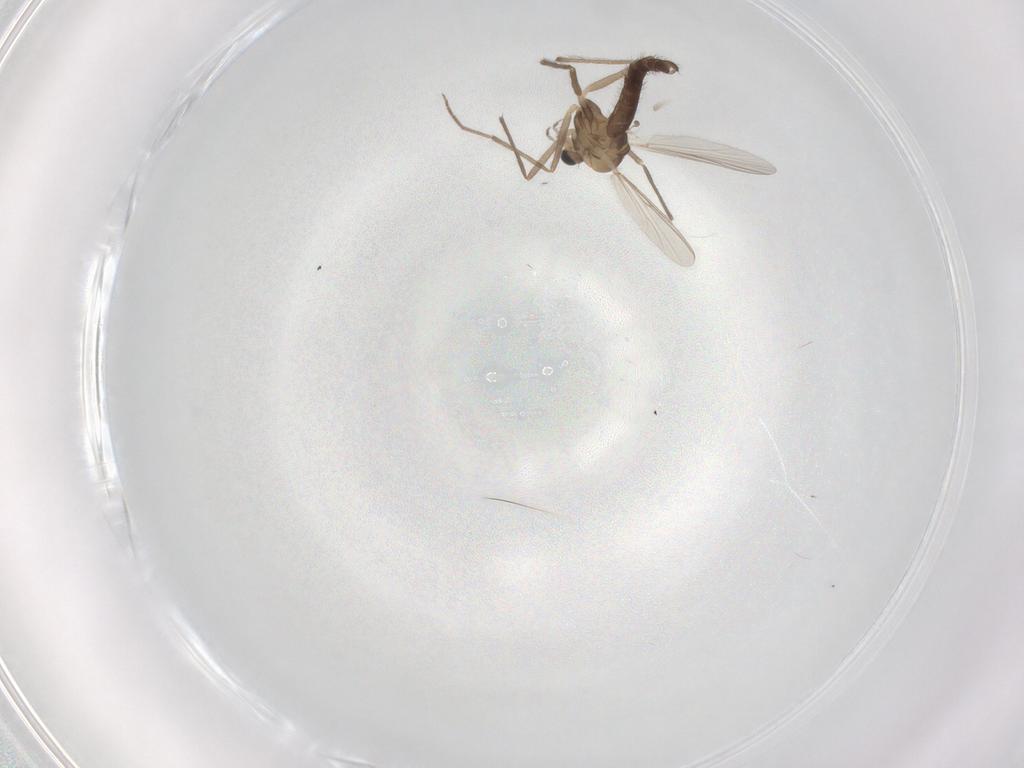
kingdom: Animalia
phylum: Arthropoda
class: Insecta
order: Diptera
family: Chironomidae
